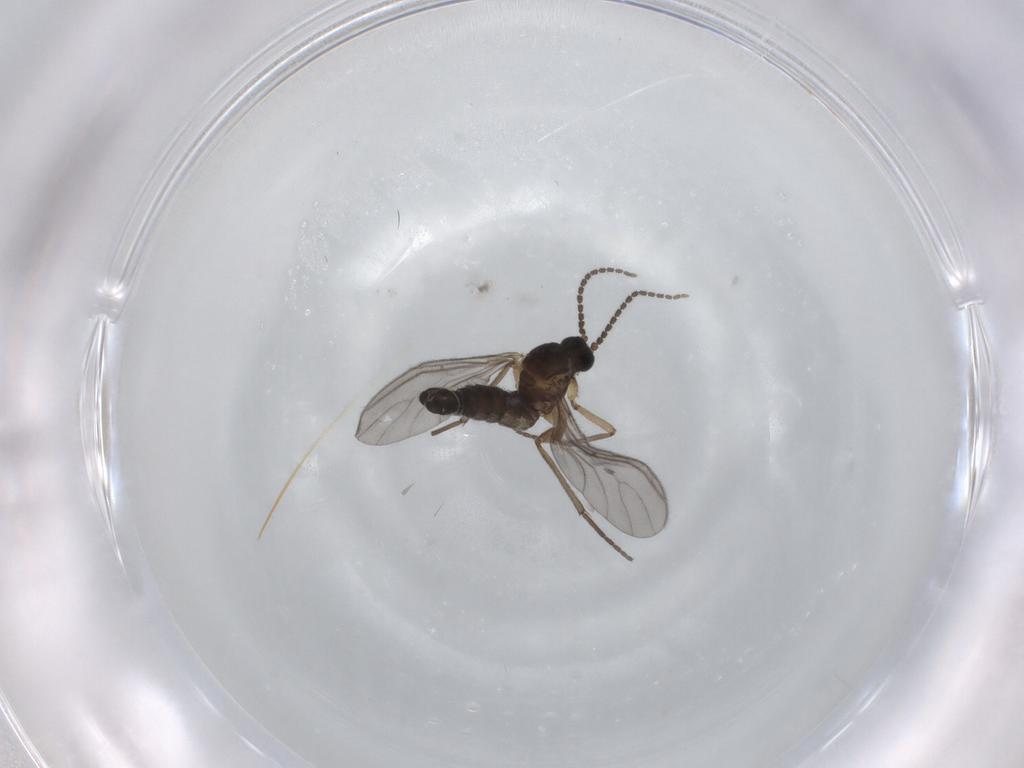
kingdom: Animalia
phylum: Arthropoda
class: Insecta
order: Diptera
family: Sciaridae
